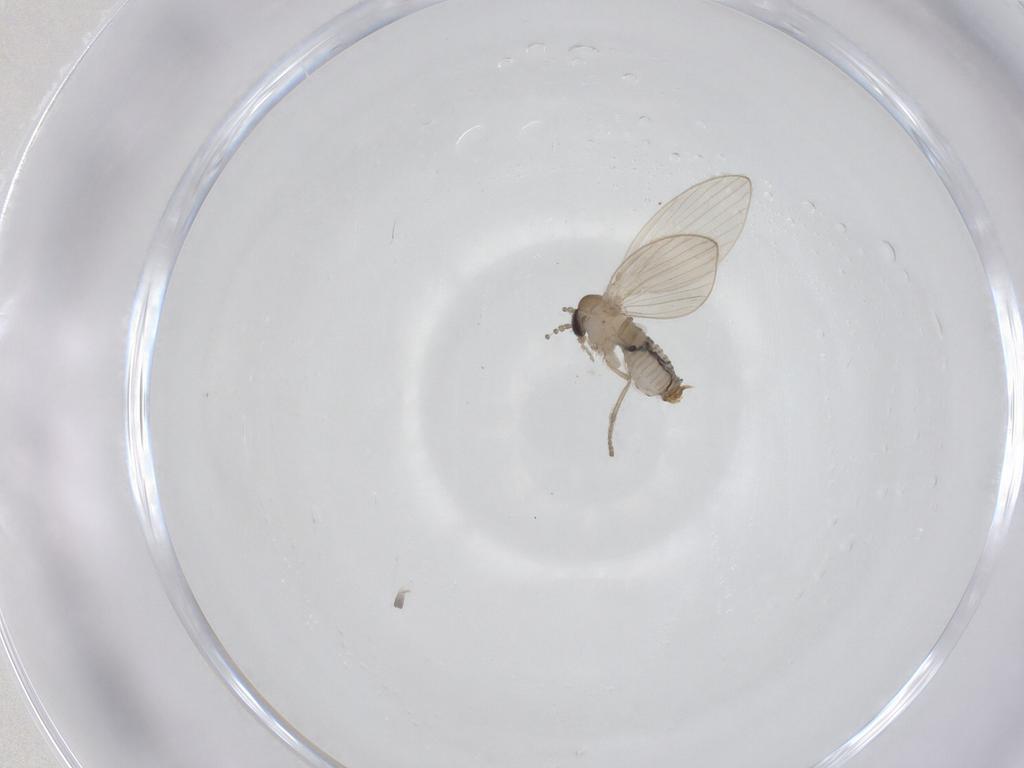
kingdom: Animalia
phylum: Arthropoda
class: Insecta
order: Diptera
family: Psychodidae
